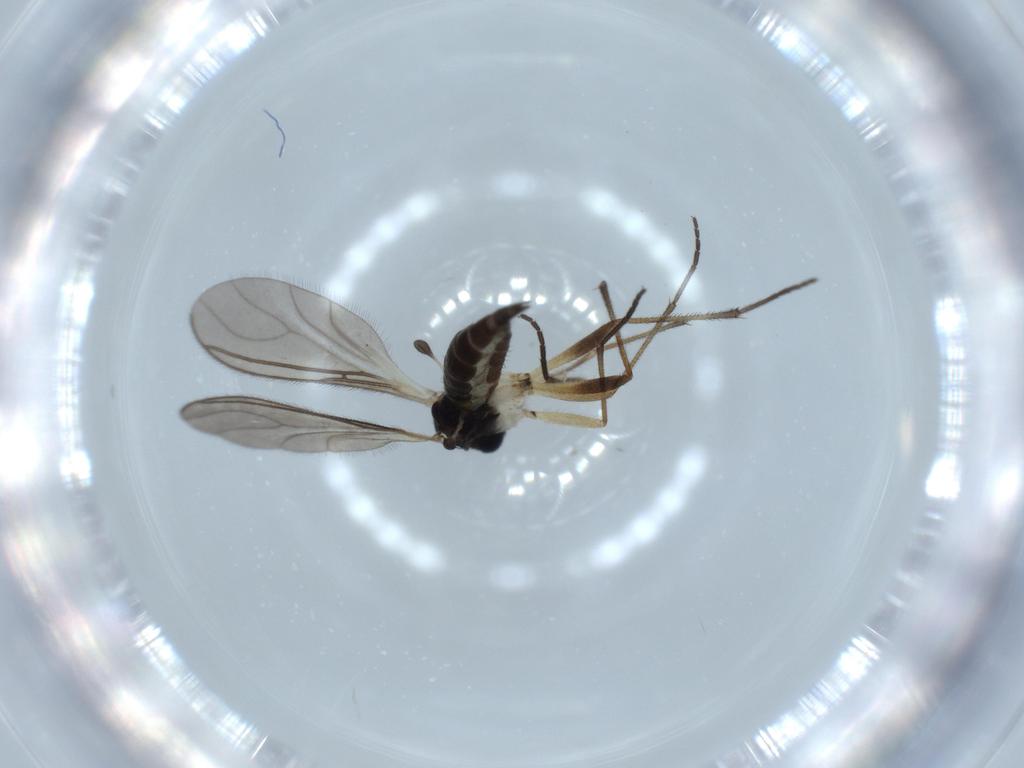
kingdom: Animalia
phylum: Arthropoda
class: Insecta
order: Diptera
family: Sciaridae
